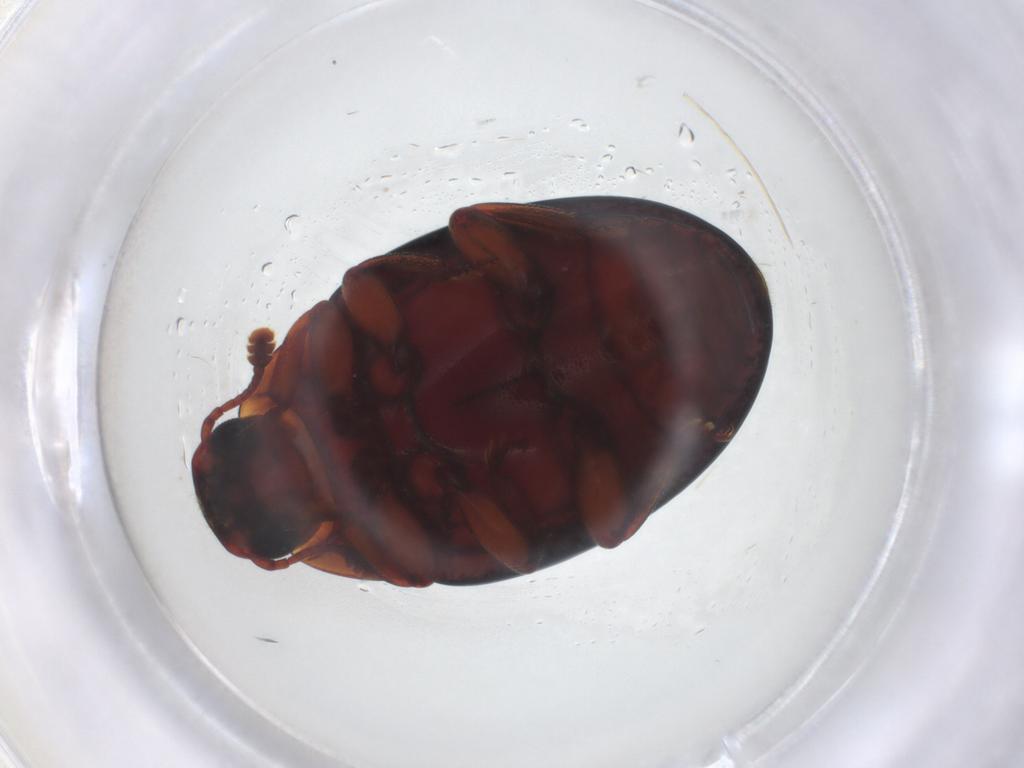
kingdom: Animalia
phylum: Arthropoda
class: Insecta
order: Coleoptera
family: Zopheridae
